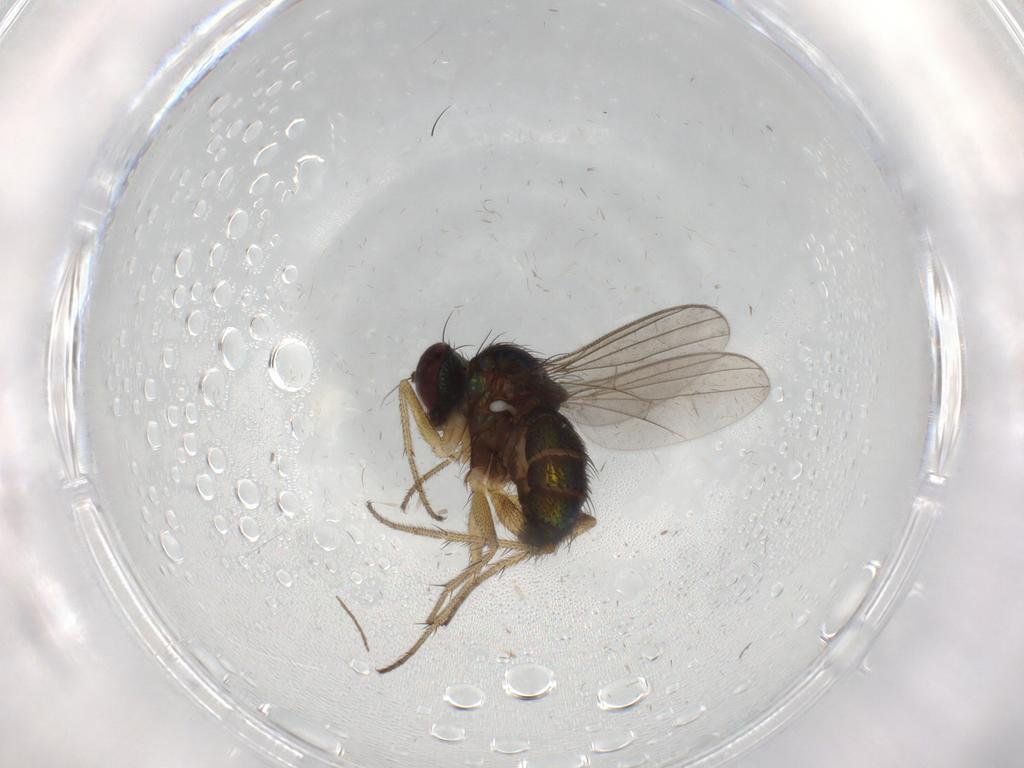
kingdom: Animalia
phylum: Arthropoda
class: Insecta
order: Diptera
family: Dolichopodidae
